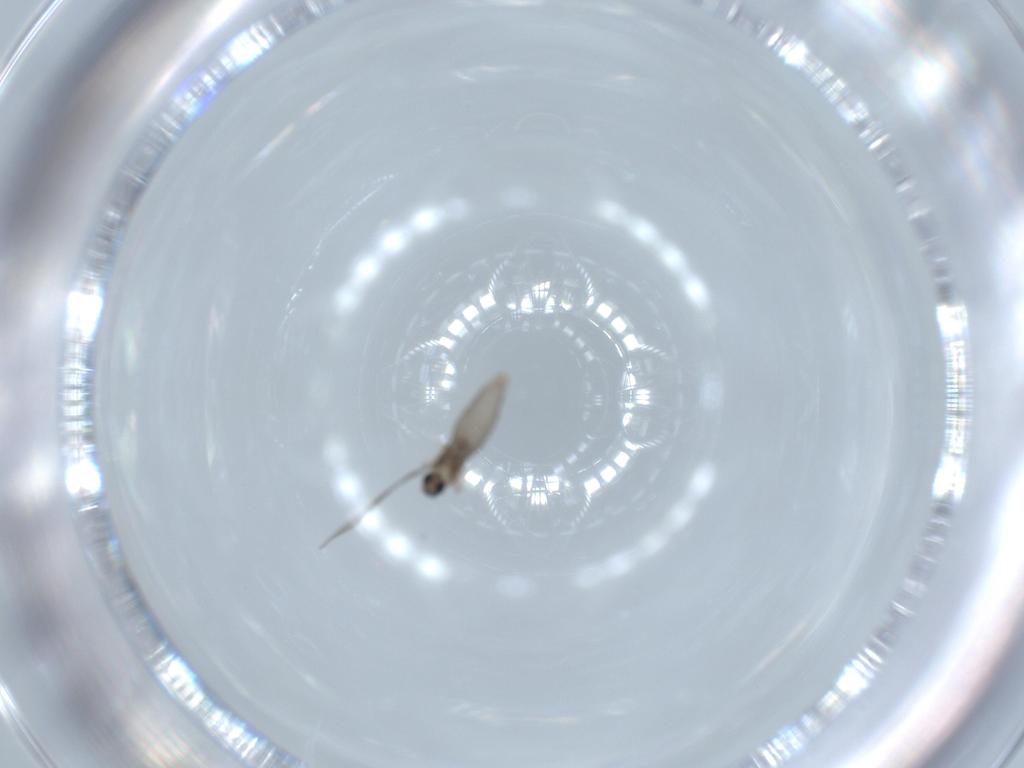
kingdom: Animalia
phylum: Arthropoda
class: Insecta
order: Diptera
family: Cecidomyiidae
